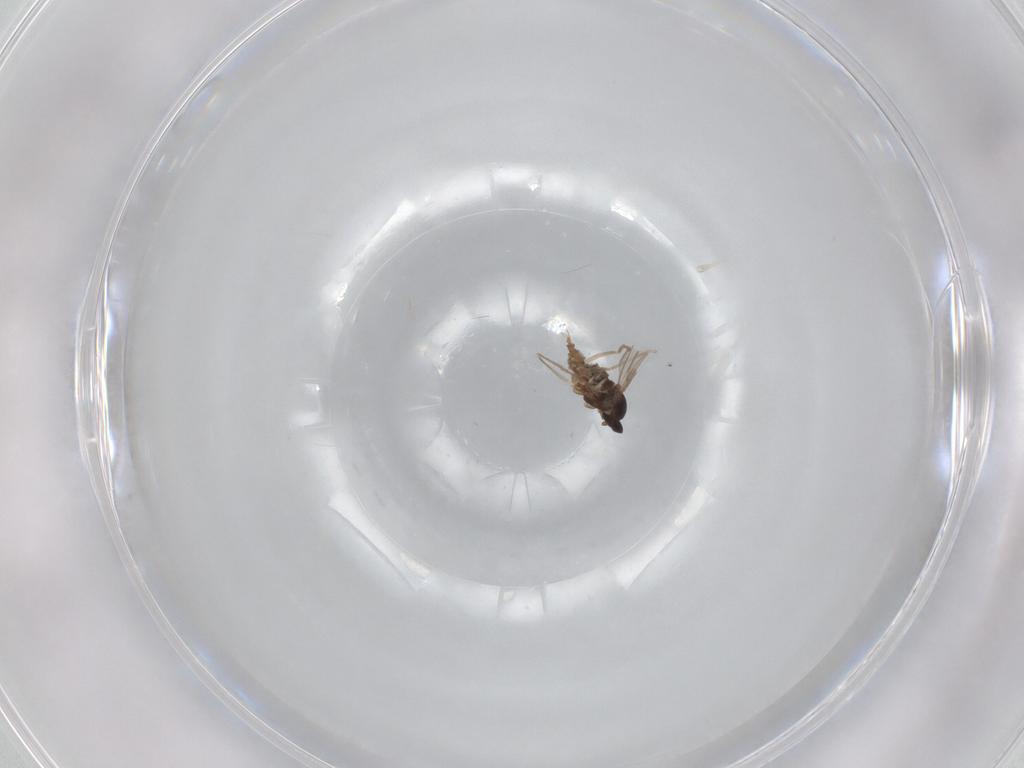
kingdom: Animalia
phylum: Arthropoda
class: Insecta
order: Diptera
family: Cecidomyiidae
